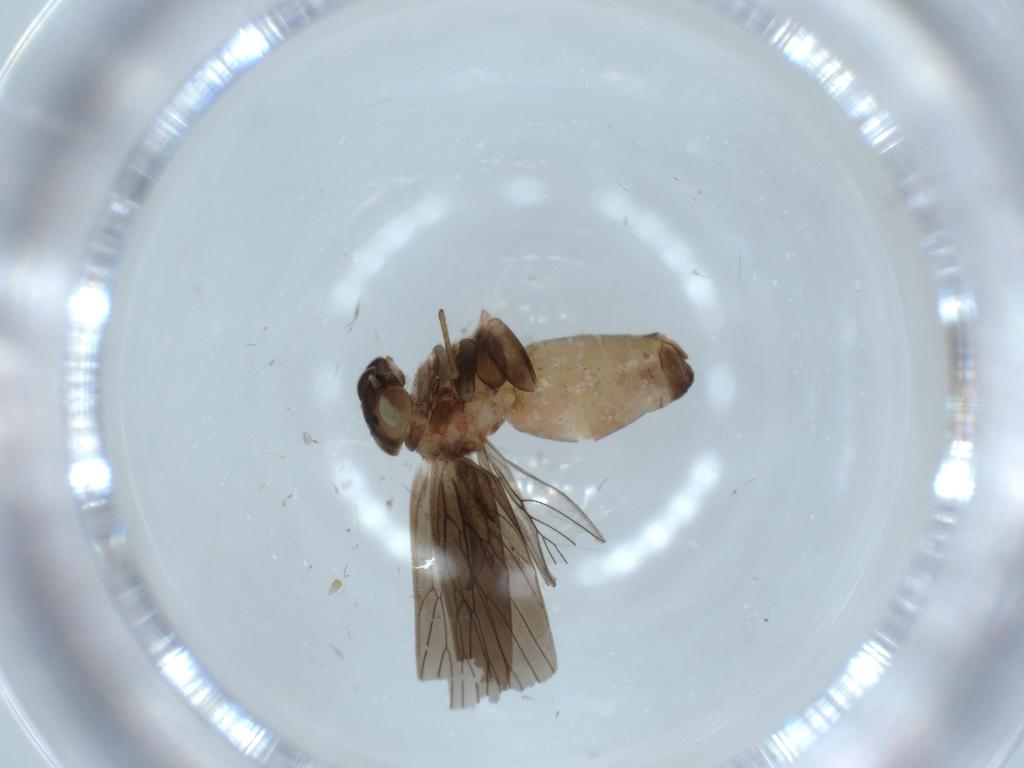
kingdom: Animalia
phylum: Arthropoda
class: Insecta
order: Psocodea
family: Lepidopsocidae
